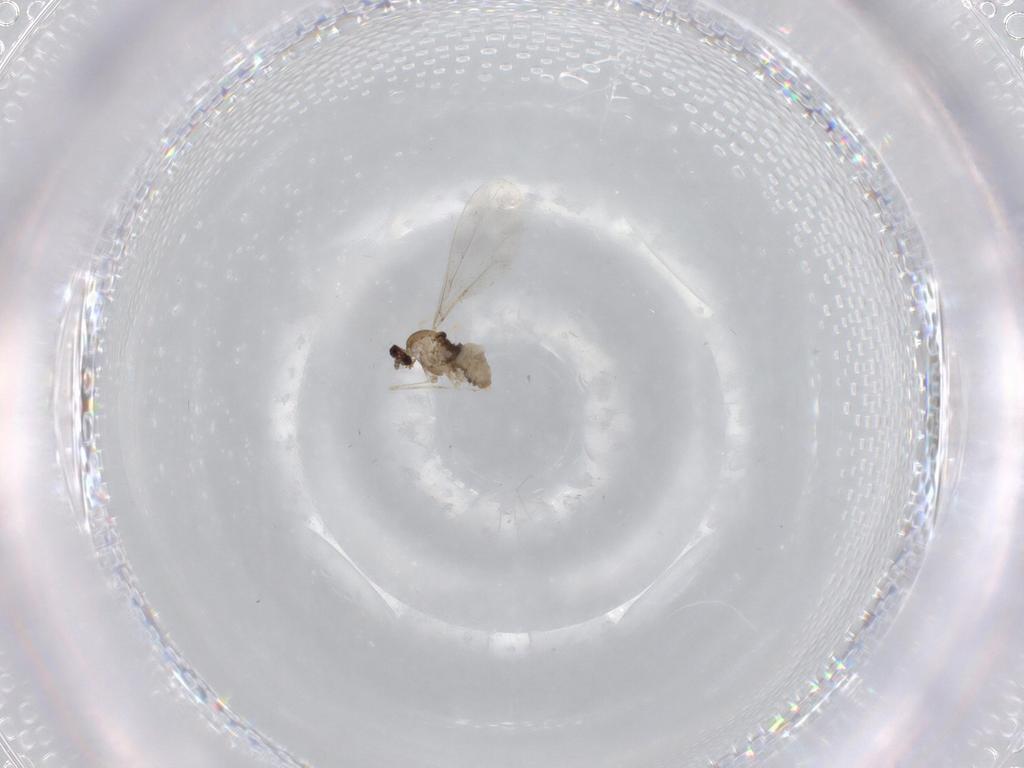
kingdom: Animalia
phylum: Arthropoda
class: Insecta
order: Diptera
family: Cecidomyiidae
